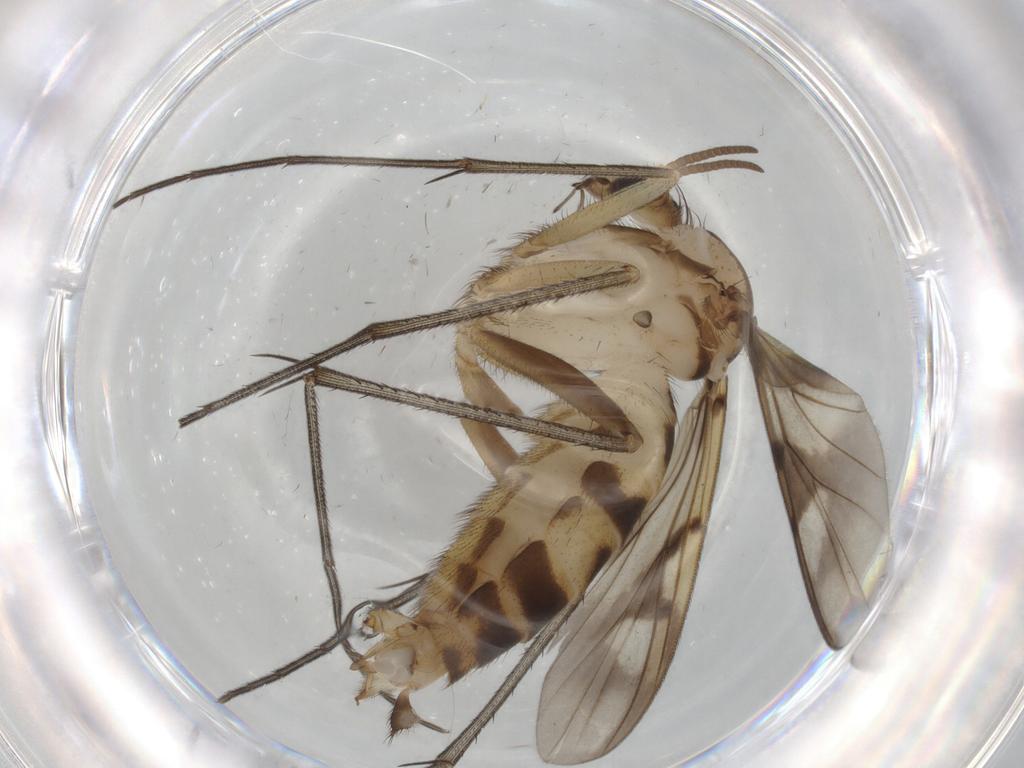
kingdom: Animalia
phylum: Arthropoda
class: Insecta
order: Diptera
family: Mycetophilidae
